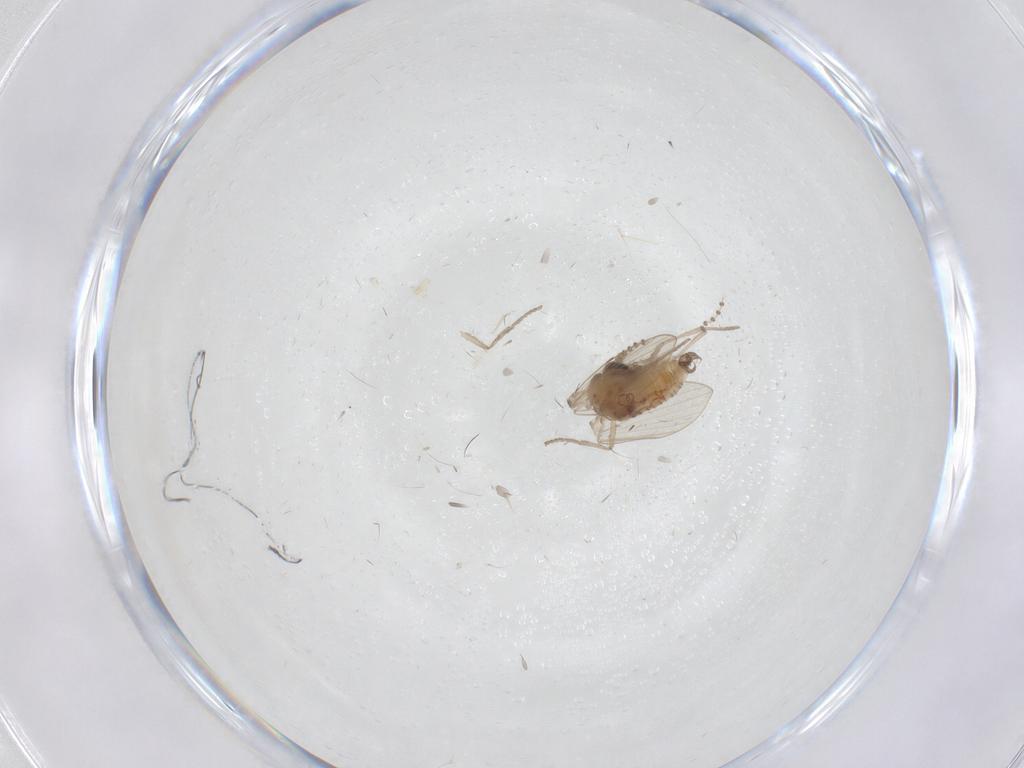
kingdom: Animalia
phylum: Arthropoda
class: Insecta
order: Diptera
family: Psychodidae
